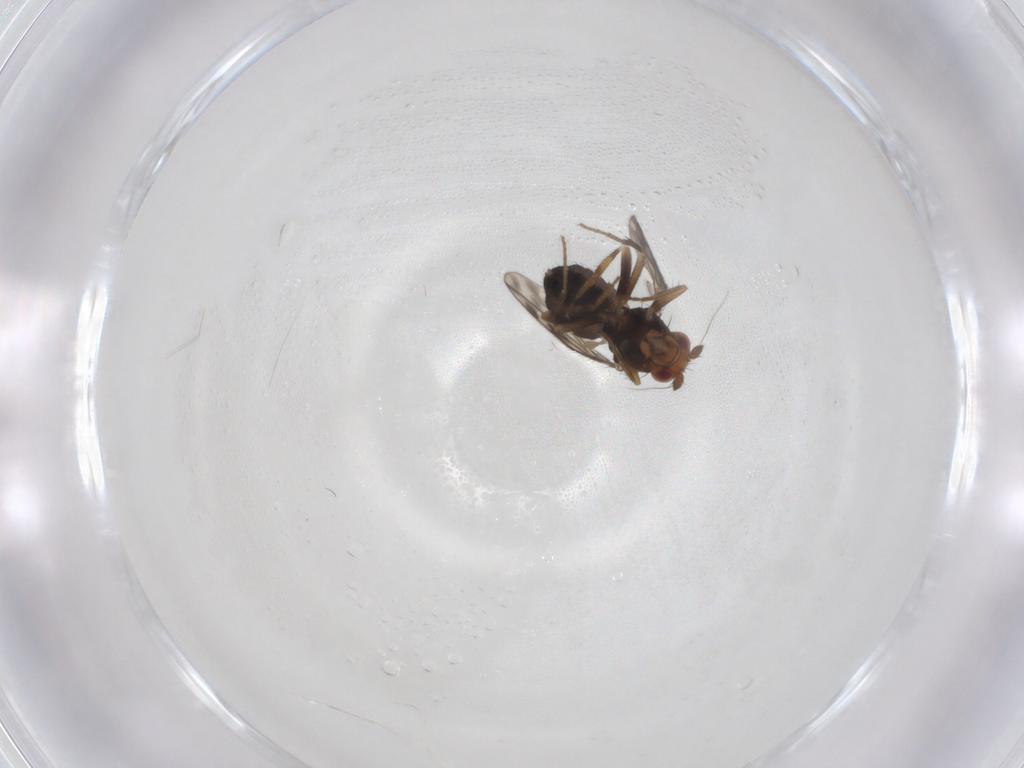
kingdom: Animalia
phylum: Arthropoda
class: Insecta
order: Diptera
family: Sphaeroceridae
